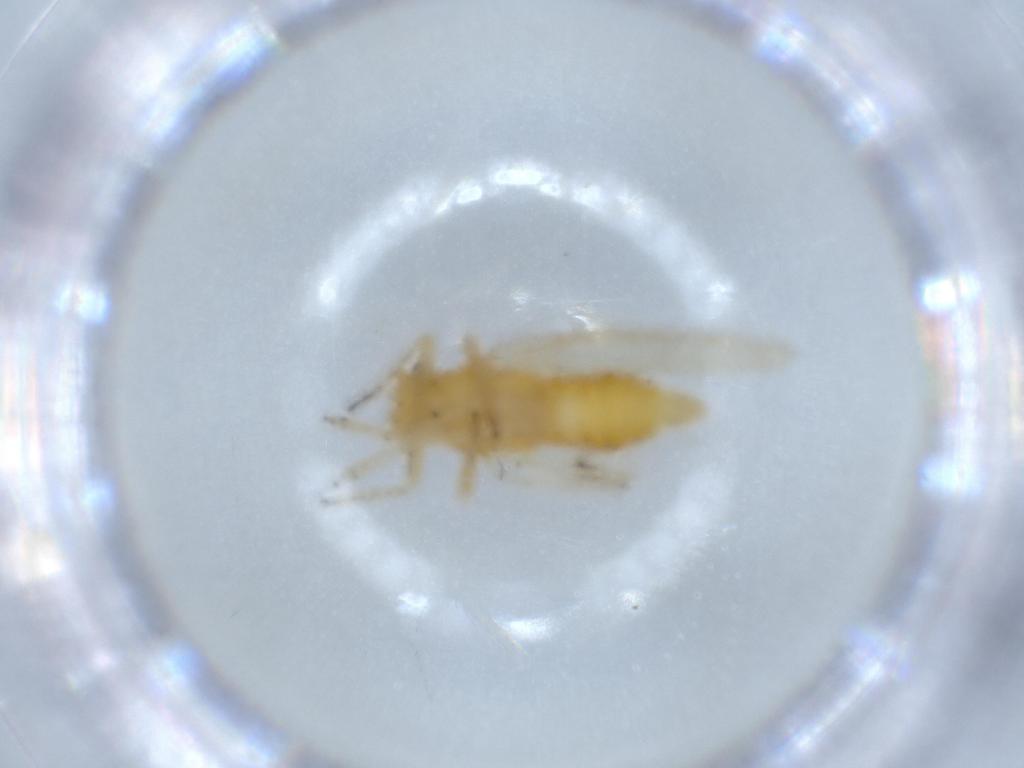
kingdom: Animalia
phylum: Arthropoda
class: Insecta
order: Hemiptera
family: Psyllidae
